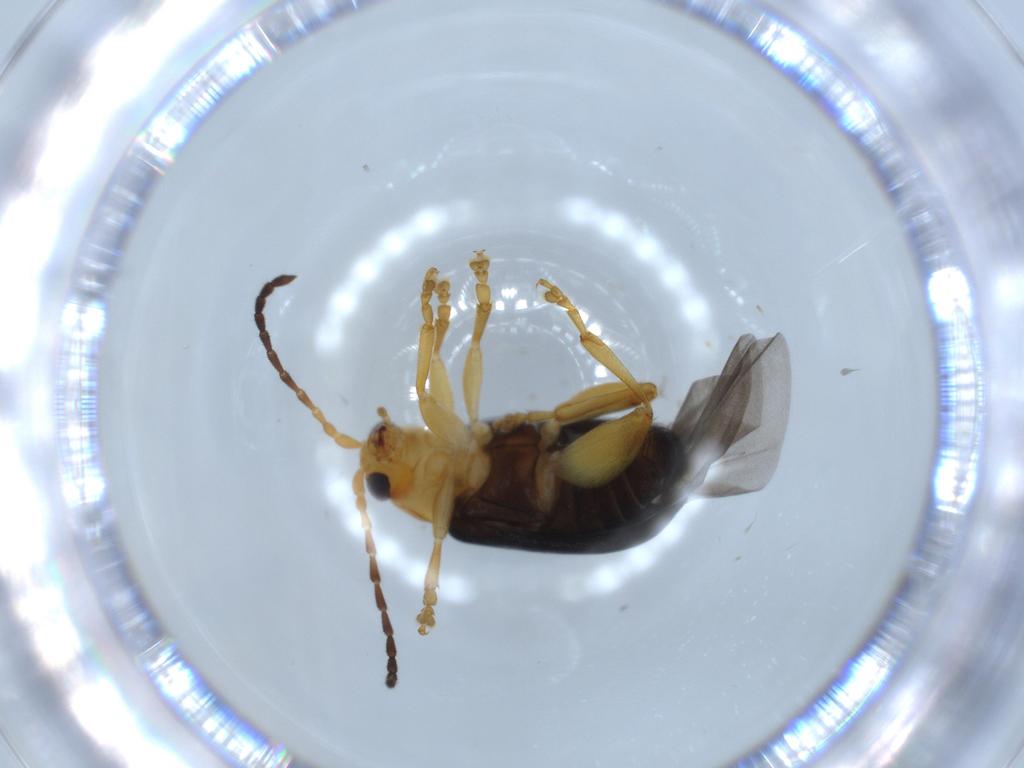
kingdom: Animalia
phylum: Arthropoda
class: Insecta
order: Coleoptera
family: Chrysomelidae
